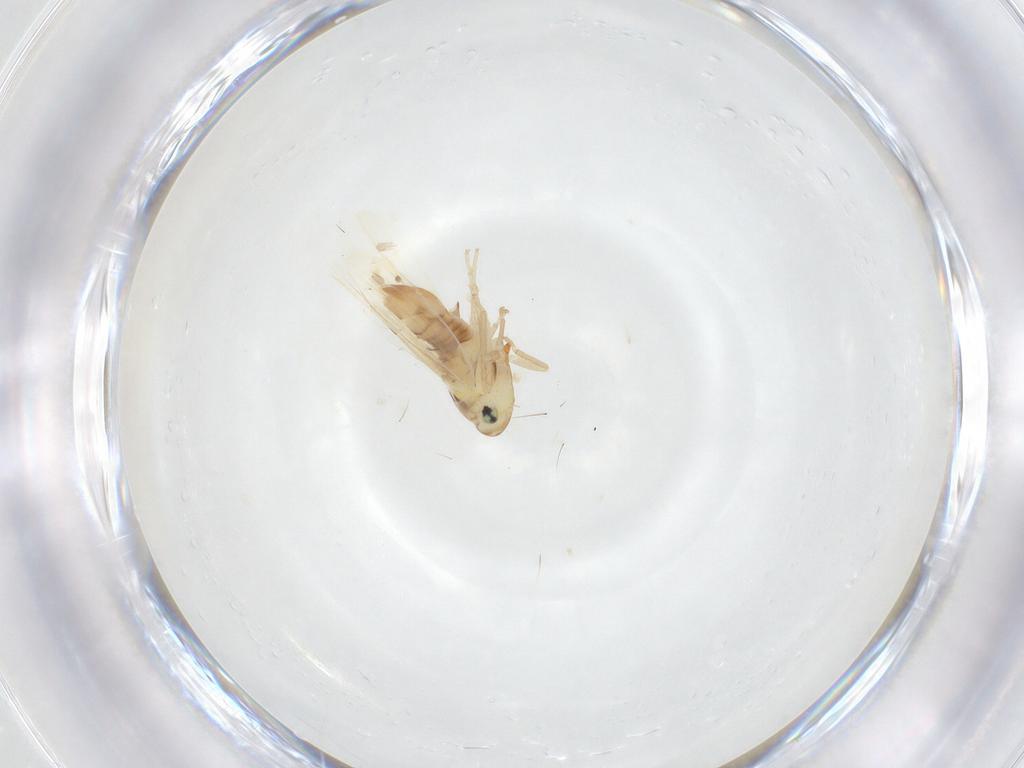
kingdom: Animalia
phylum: Arthropoda
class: Insecta
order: Hemiptera
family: Cicadellidae
